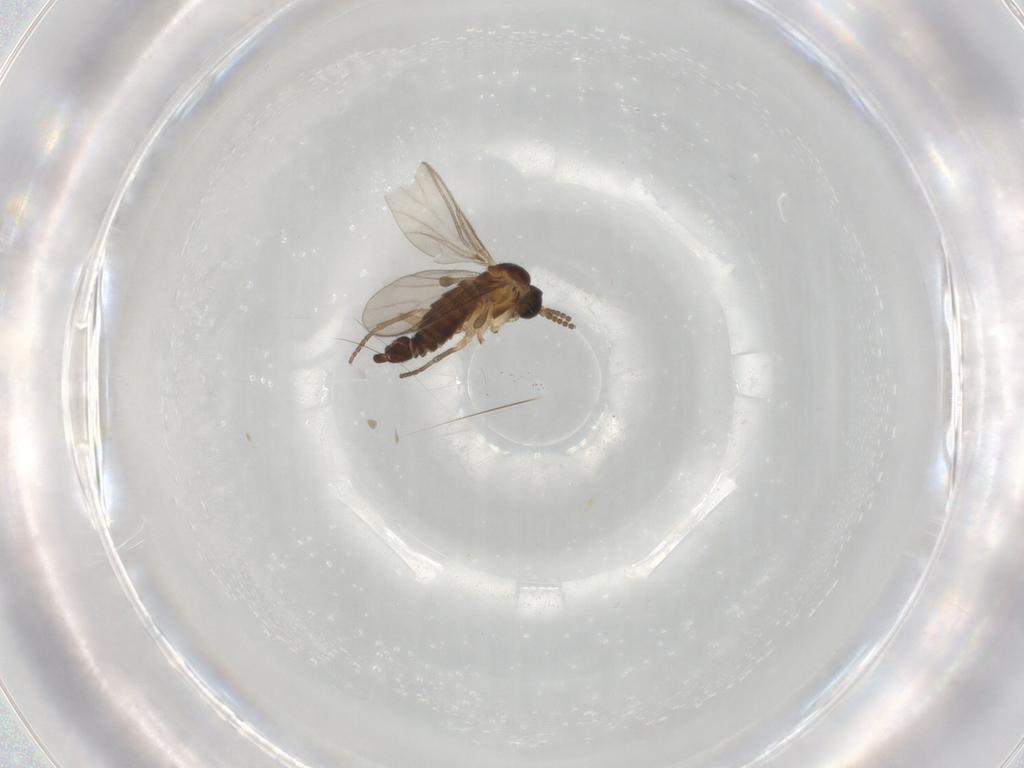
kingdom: Animalia
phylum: Arthropoda
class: Insecta
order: Diptera
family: Sciaridae
